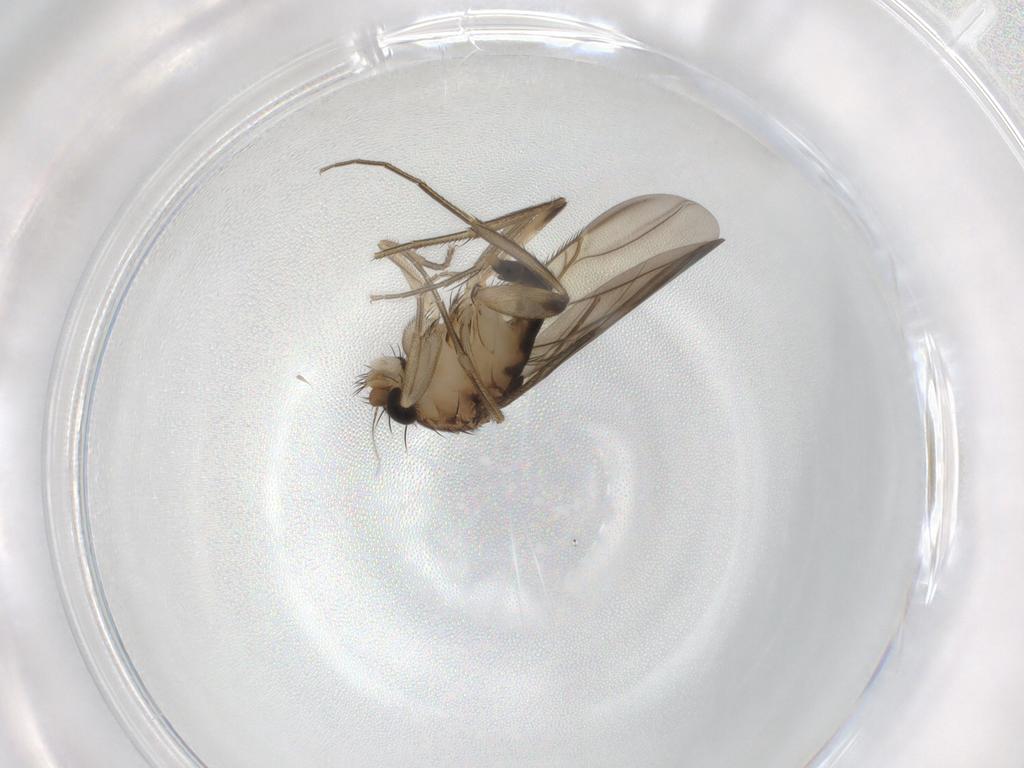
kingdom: Animalia
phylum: Arthropoda
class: Insecta
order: Diptera
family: Phoridae
